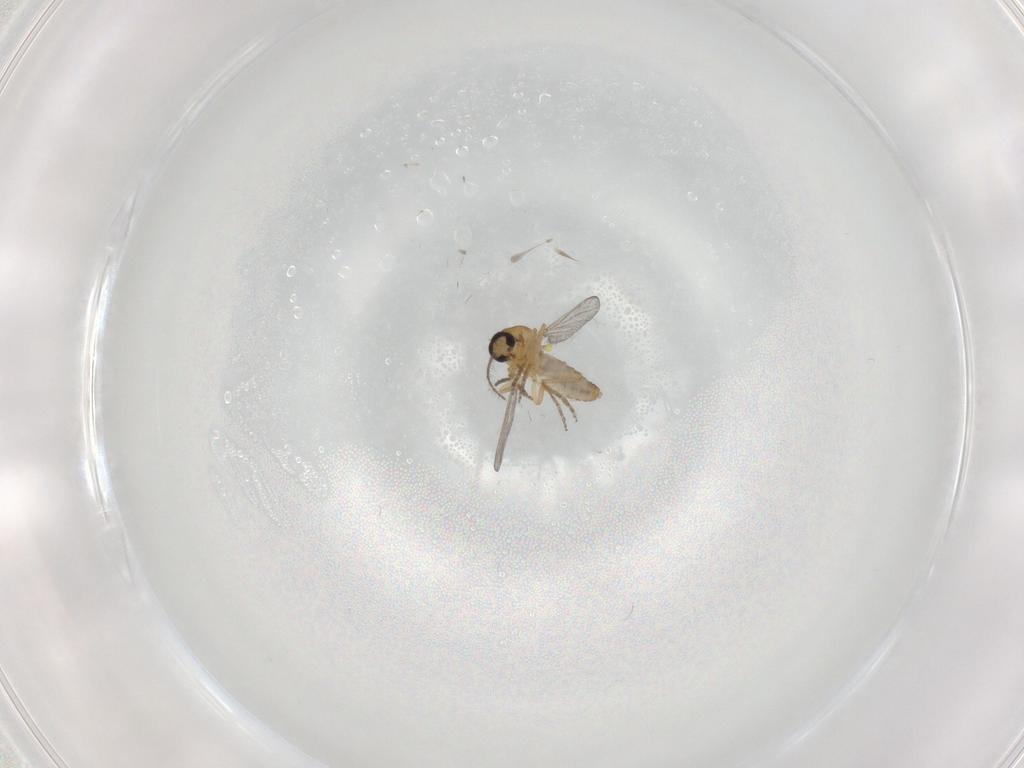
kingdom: Animalia
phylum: Arthropoda
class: Insecta
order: Diptera
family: Ceratopogonidae
